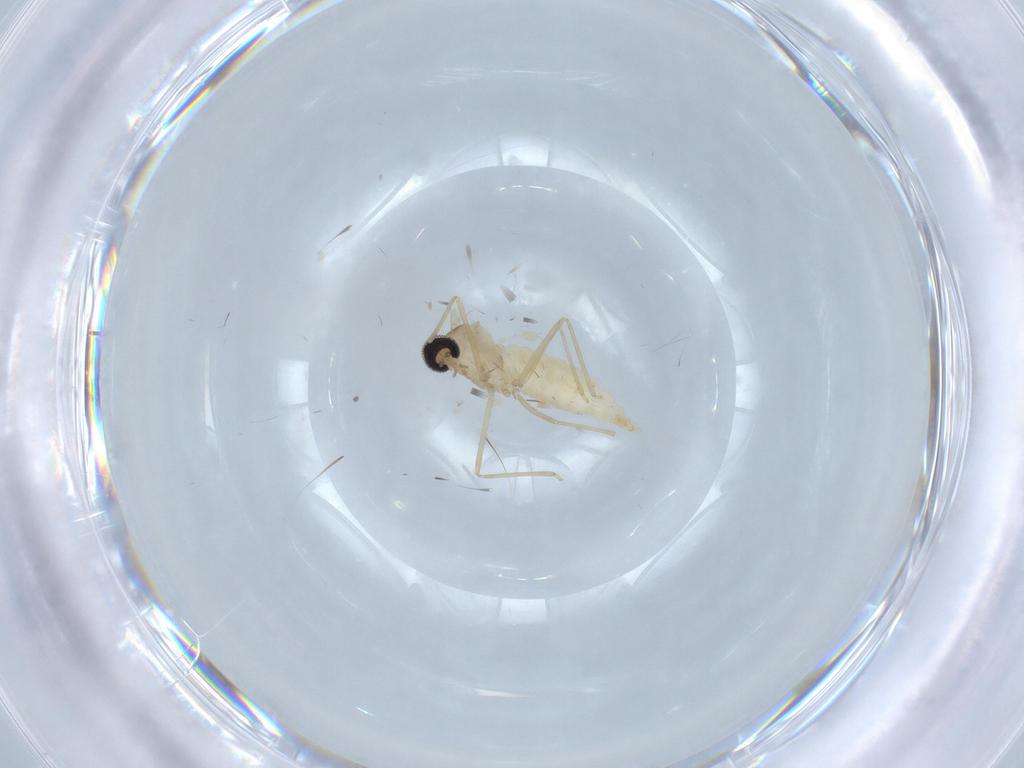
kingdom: Animalia
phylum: Arthropoda
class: Insecta
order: Diptera
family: Cecidomyiidae
